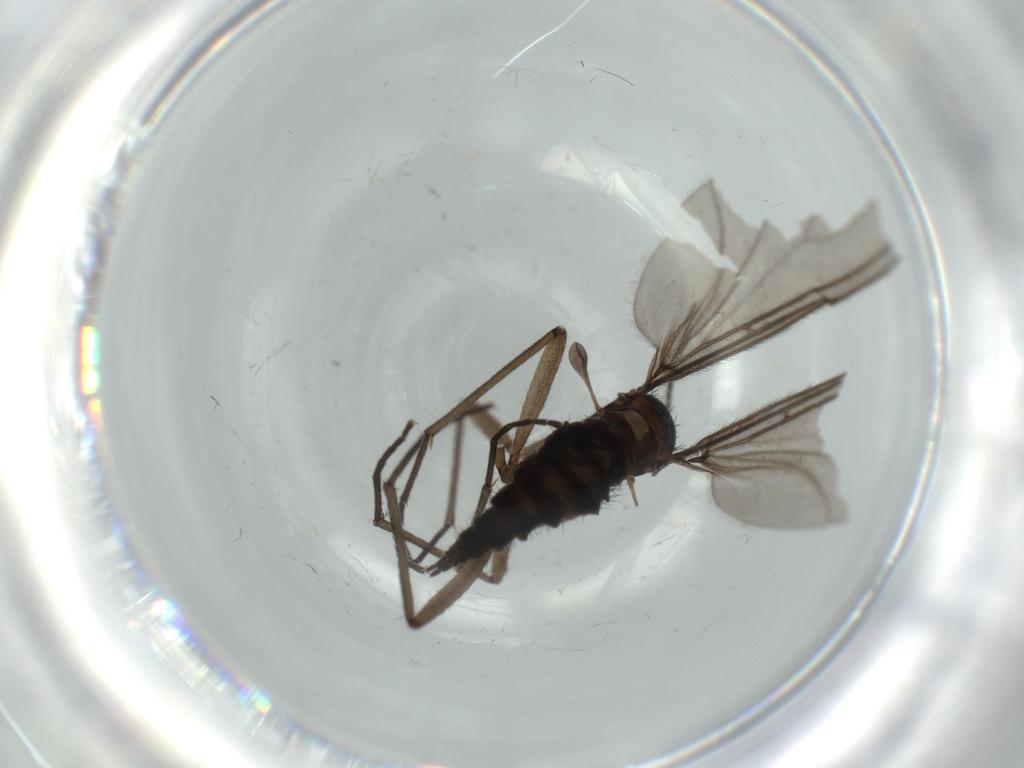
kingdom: Animalia
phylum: Arthropoda
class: Insecta
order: Diptera
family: Sciaridae
